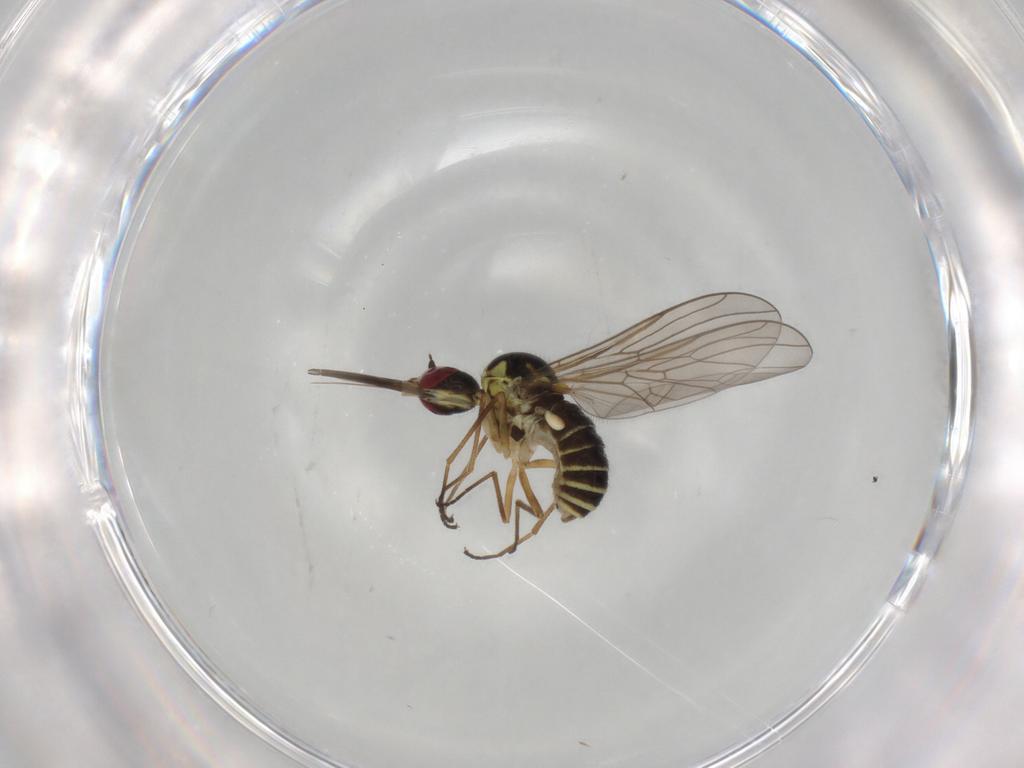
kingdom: Animalia
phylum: Arthropoda
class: Insecta
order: Diptera
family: Mythicomyiidae
